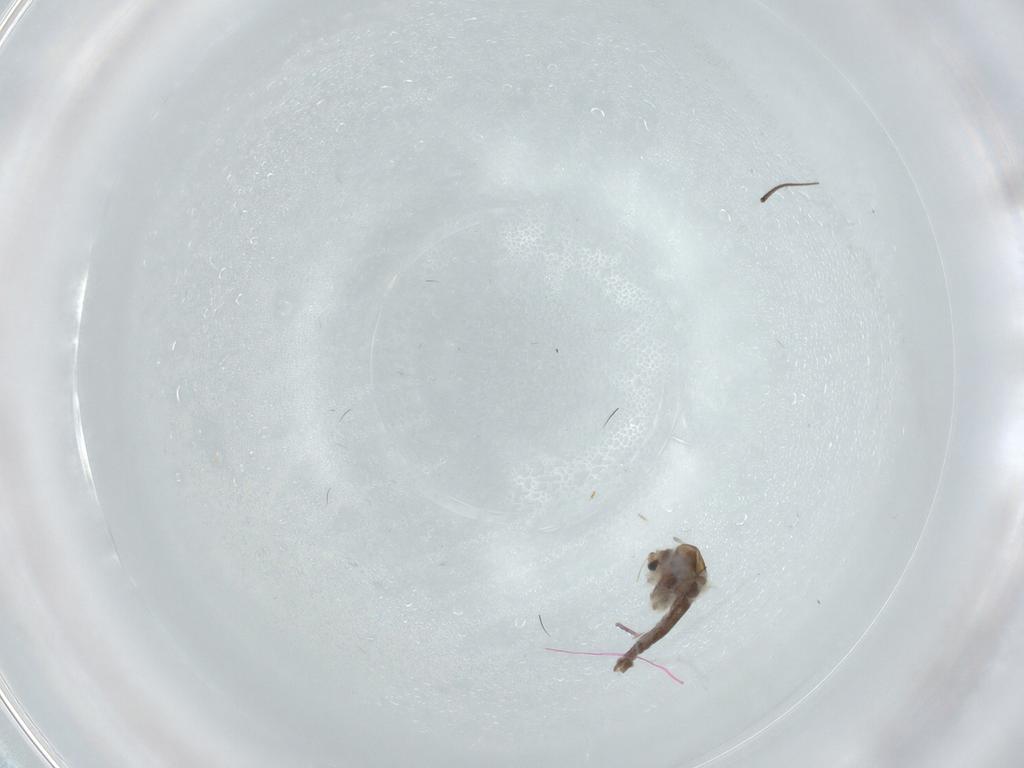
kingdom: Animalia
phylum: Arthropoda
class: Insecta
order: Diptera
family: Chironomidae
